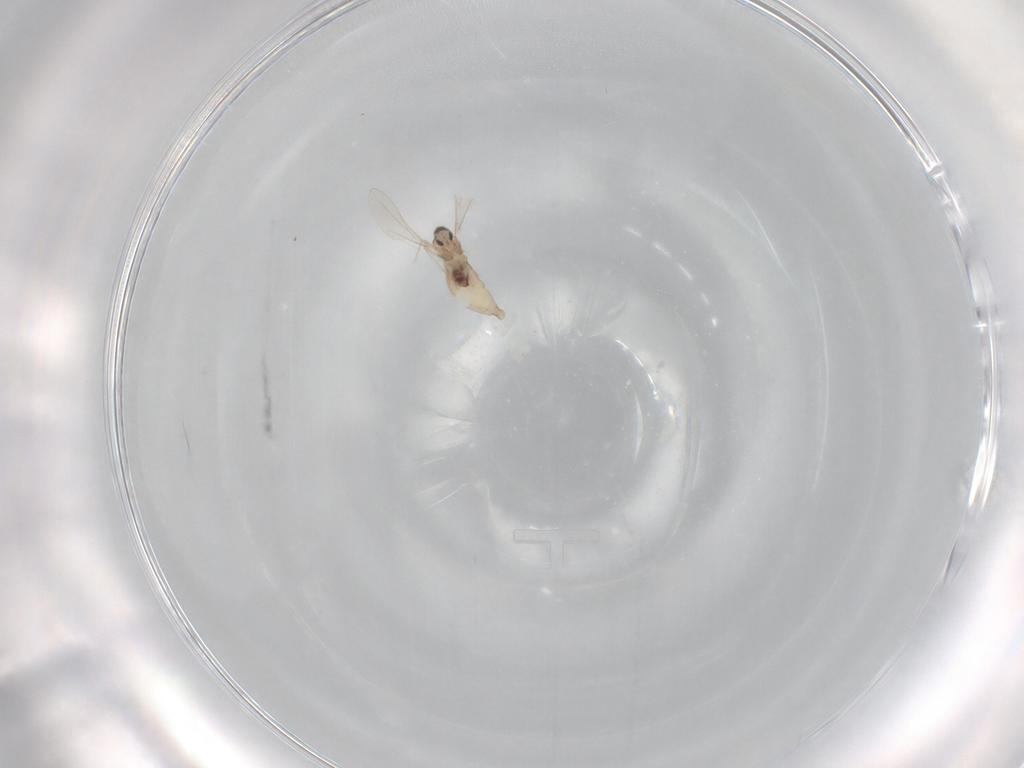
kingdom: Animalia
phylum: Arthropoda
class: Insecta
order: Diptera
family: Cecidomyiidae
